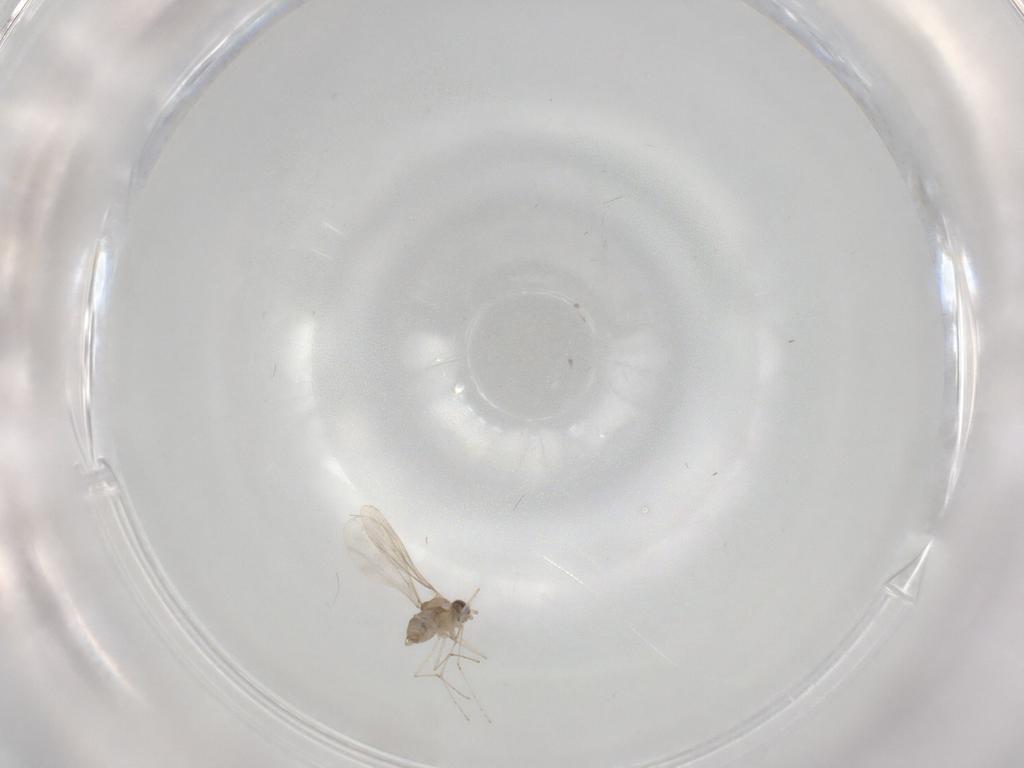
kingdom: Animalia
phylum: Arthropoda
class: Insecta
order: Diptera
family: Cecidomyiidae
